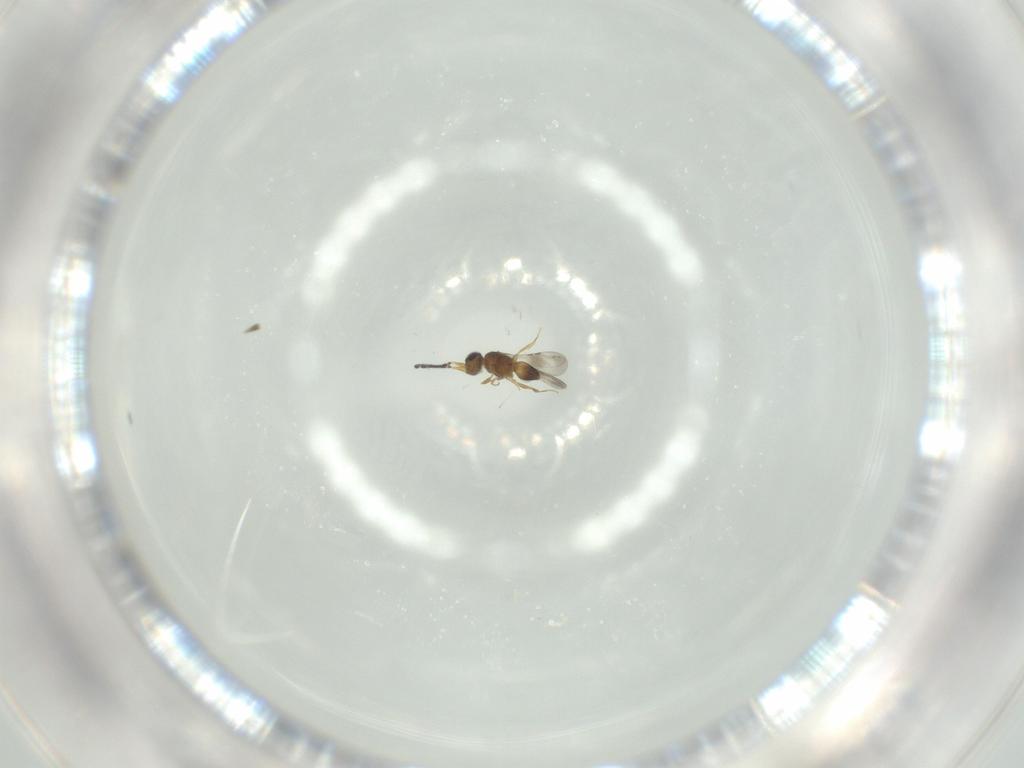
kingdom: Animalia
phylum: Arthropoda
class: Insecta
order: Hymenoptera
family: Ceraphronidae
